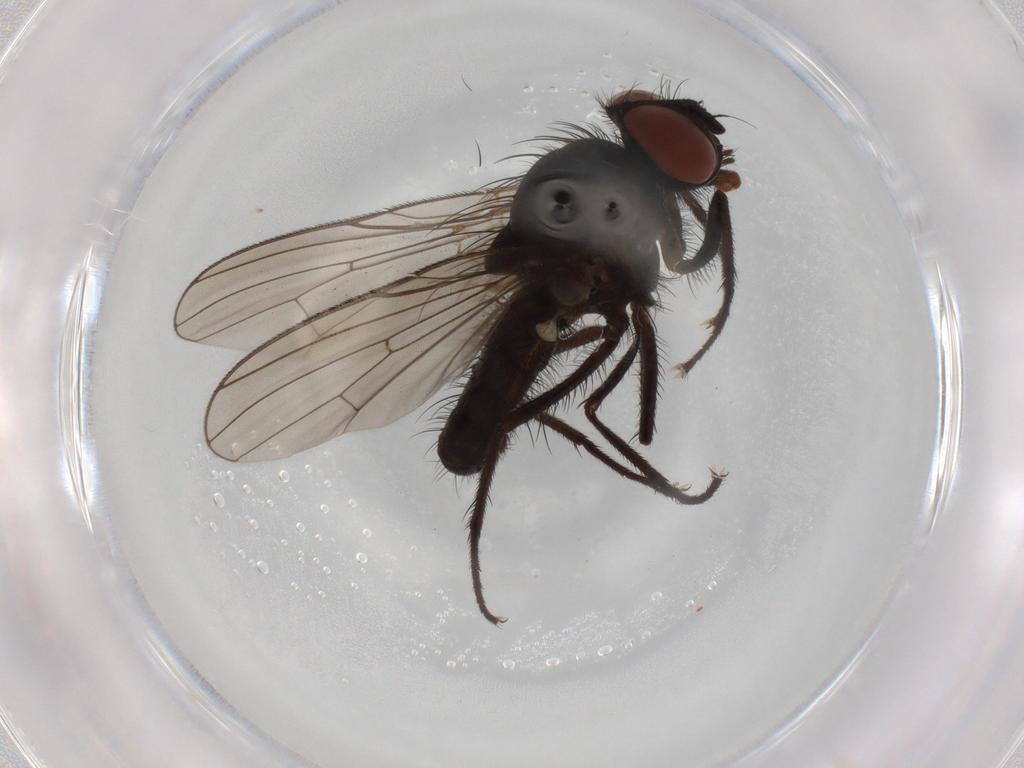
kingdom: Animalia
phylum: Arthropoda
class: Insecta
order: Diptera
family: Anthomyiidae
